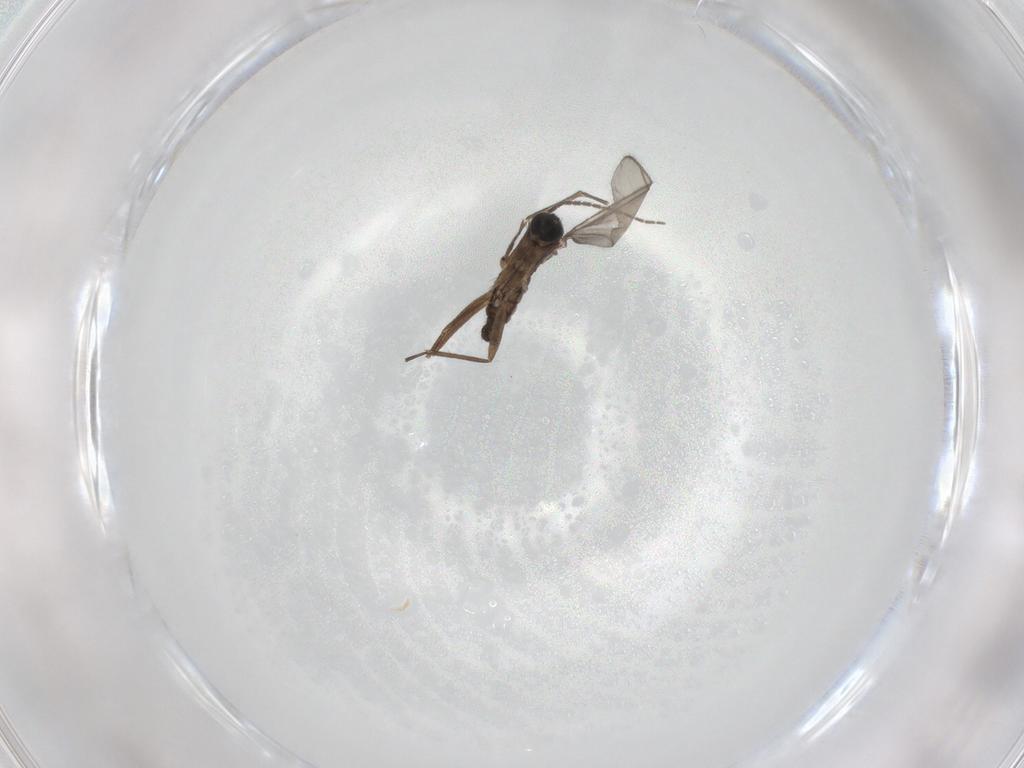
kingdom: Animalia
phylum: Arthropoda
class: Insecta
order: Diptera
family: Sciaridae
